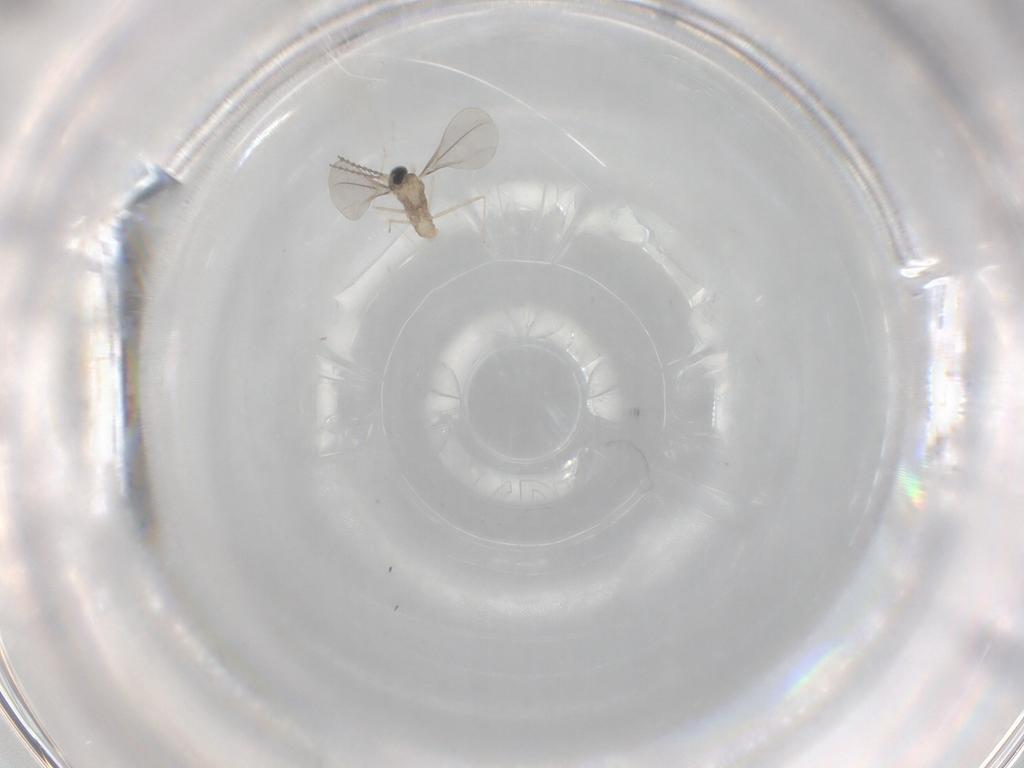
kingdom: Animalia
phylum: Arthropoda
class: Insecta
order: Diptera
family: Cecidomyiidae
